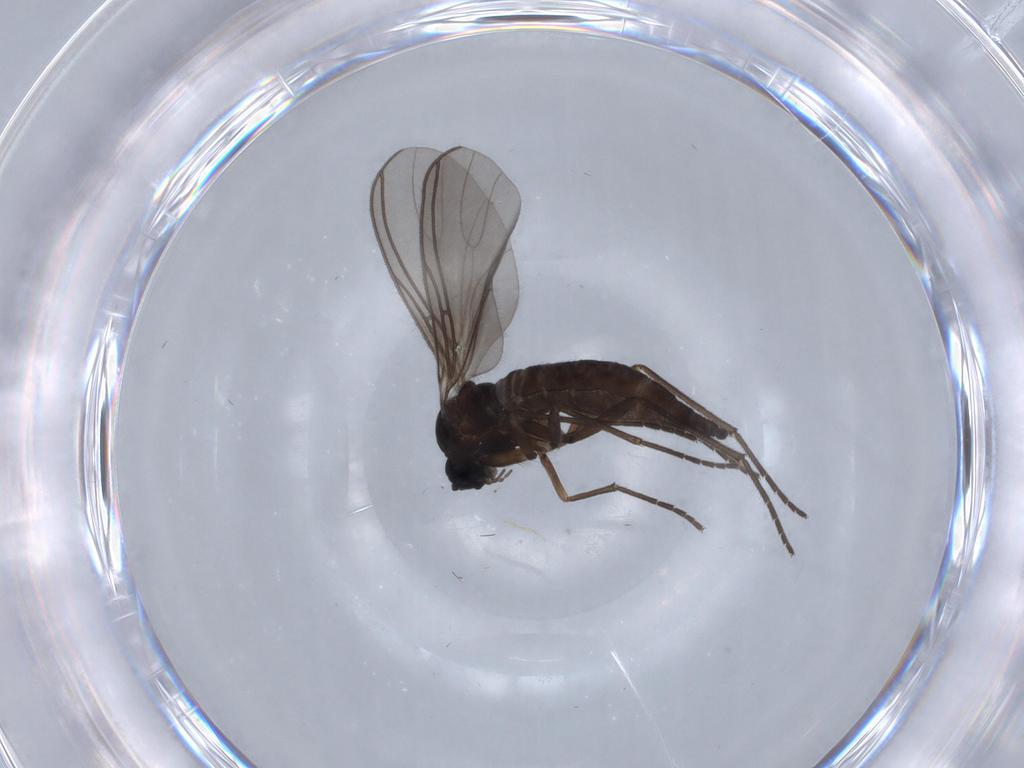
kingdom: Animalia
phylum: Arthropoda
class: Insecta
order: Diptera
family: Sciaridae
